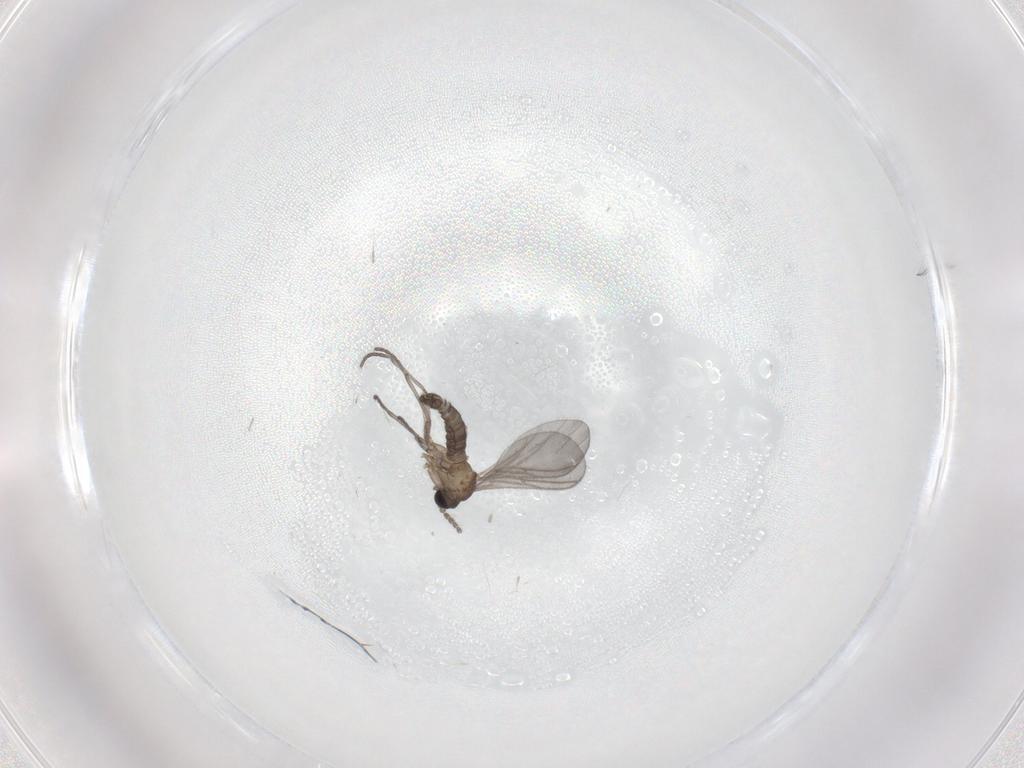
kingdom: Animalia
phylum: Arthropoda
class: Insecta
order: Diptera
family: Sciaridae
